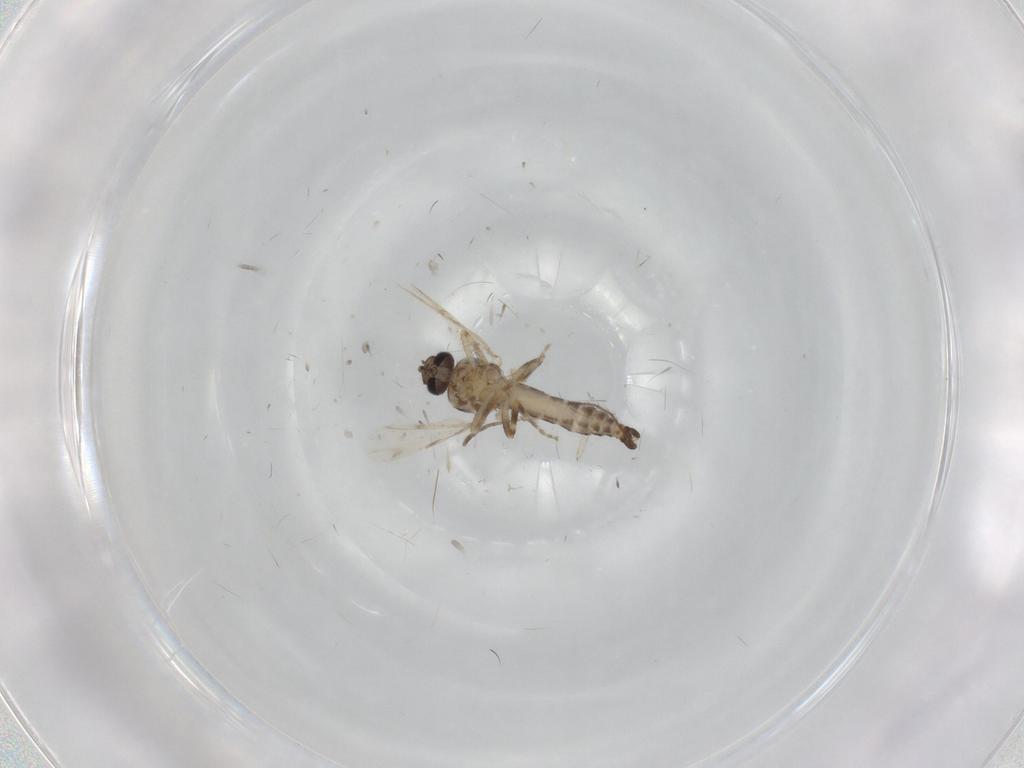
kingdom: Animalia
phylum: Arthropoda
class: Insecta
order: Diptera
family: Ceratopogonidae
